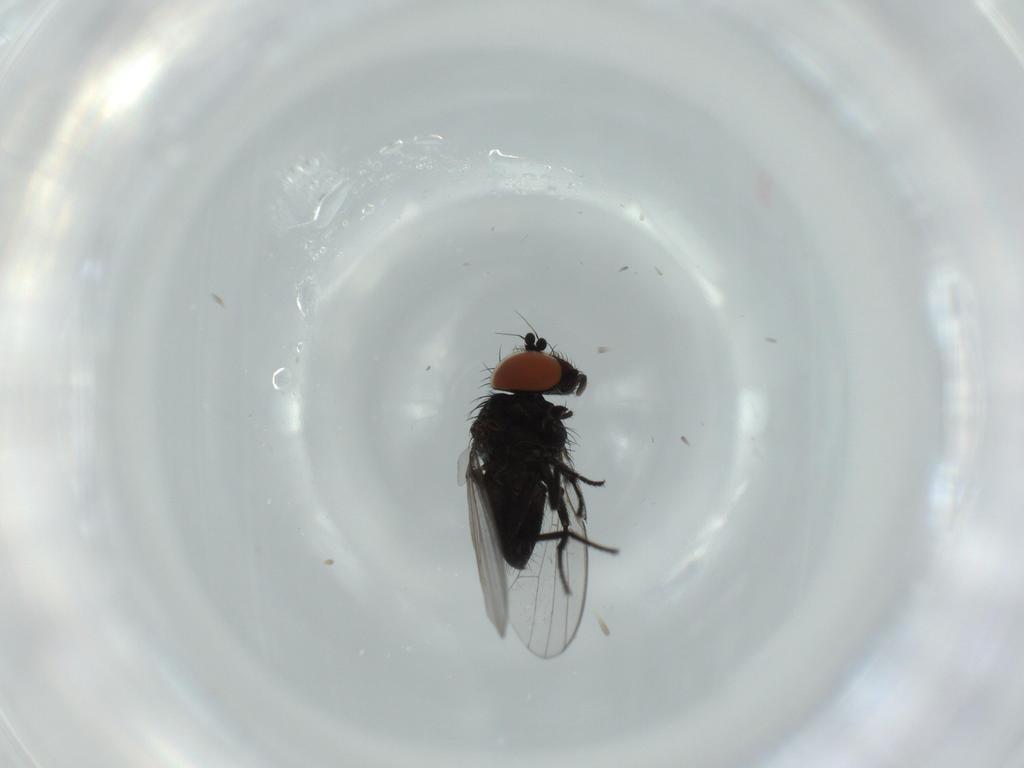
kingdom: Animalia
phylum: Arthropoda
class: Insecta
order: Diptera
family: Milichiidae
